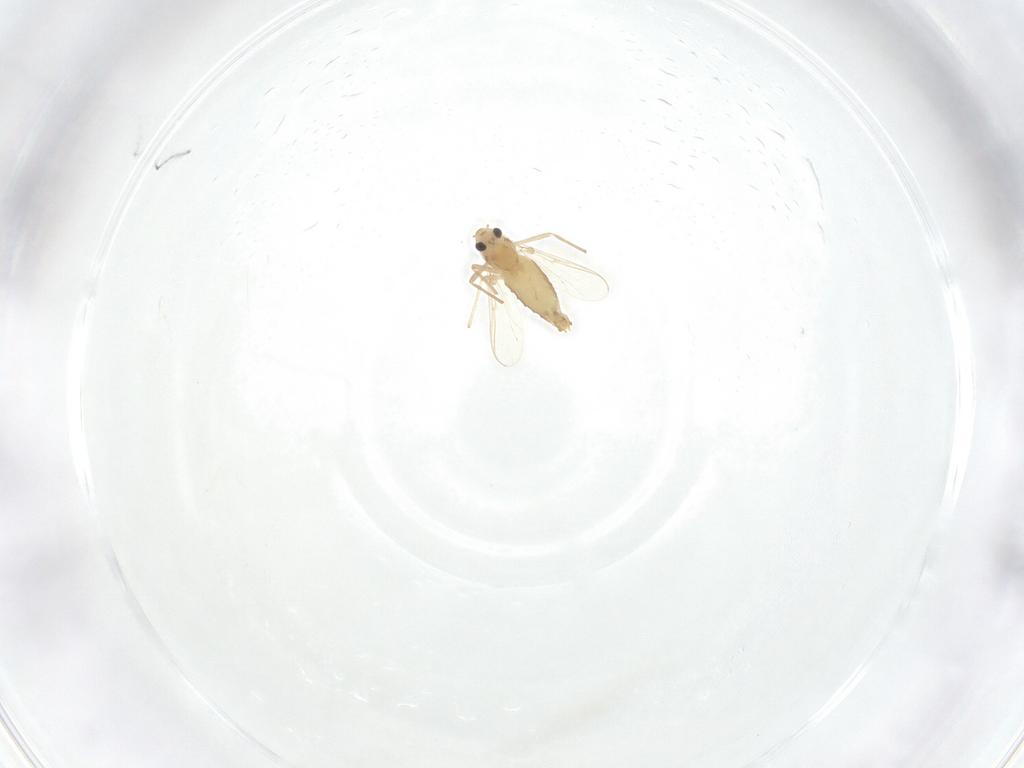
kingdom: Animalia
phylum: Arthropoda
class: Insecta
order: Diptera
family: Chironomidae
